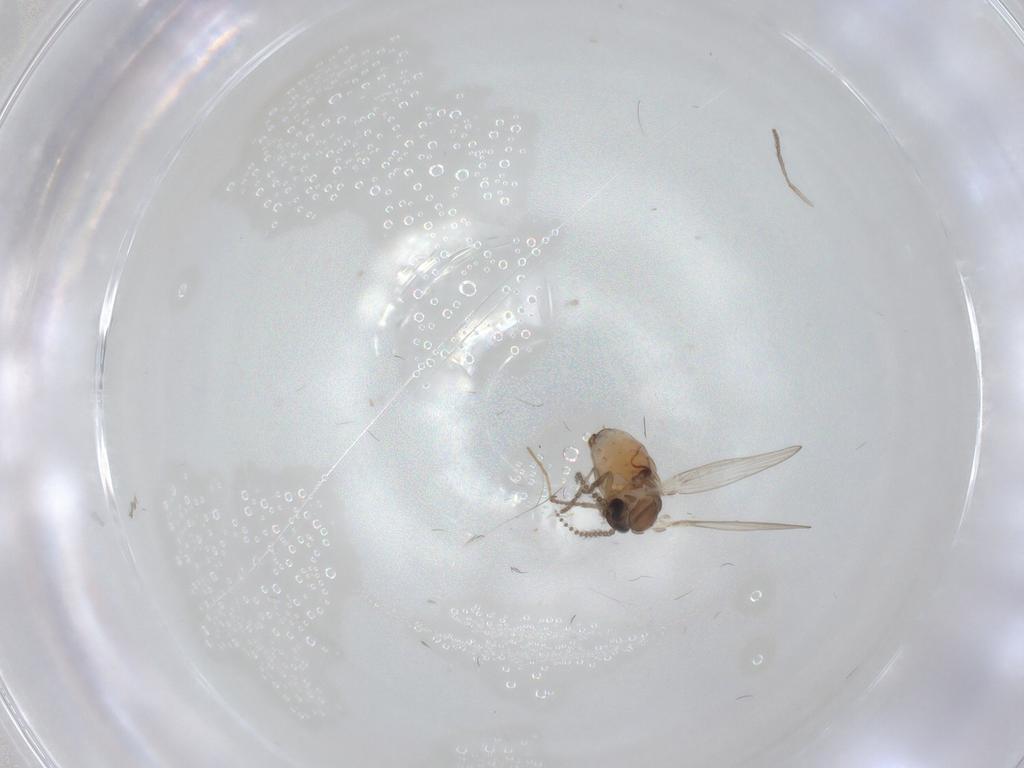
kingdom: Animalia
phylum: Arthropoda
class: Insecta
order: Diptera
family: Psychodidae
